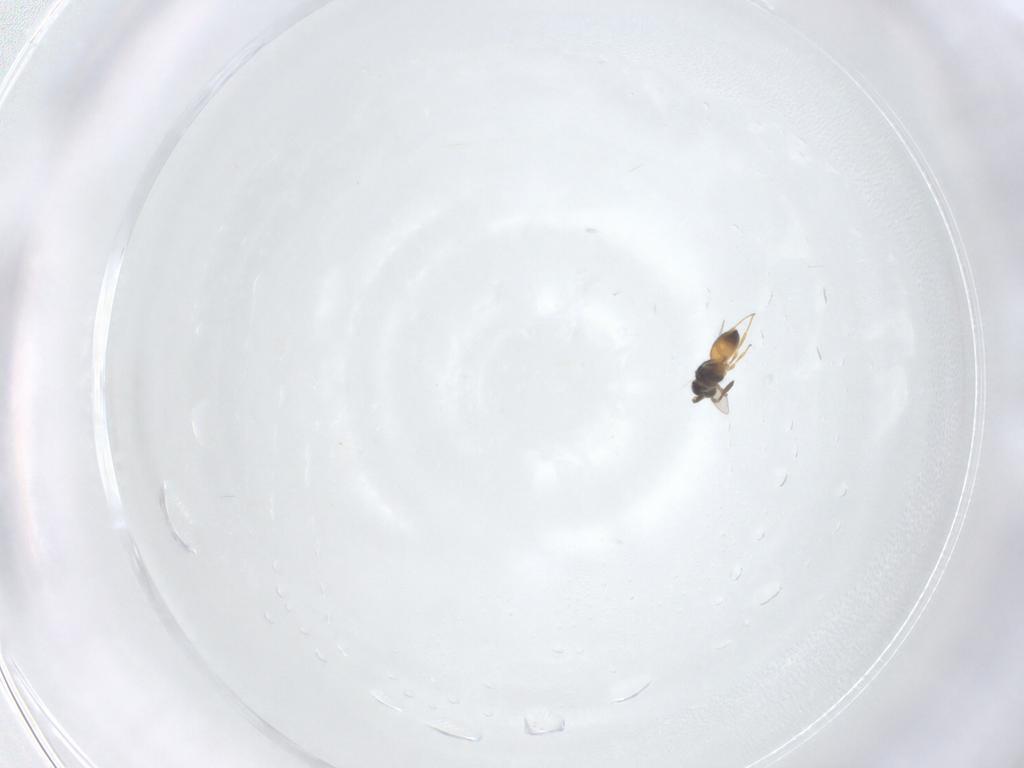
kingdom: Animalia
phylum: Arthropoda
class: Insecta
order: Hymenoptera
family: Scelionidae
